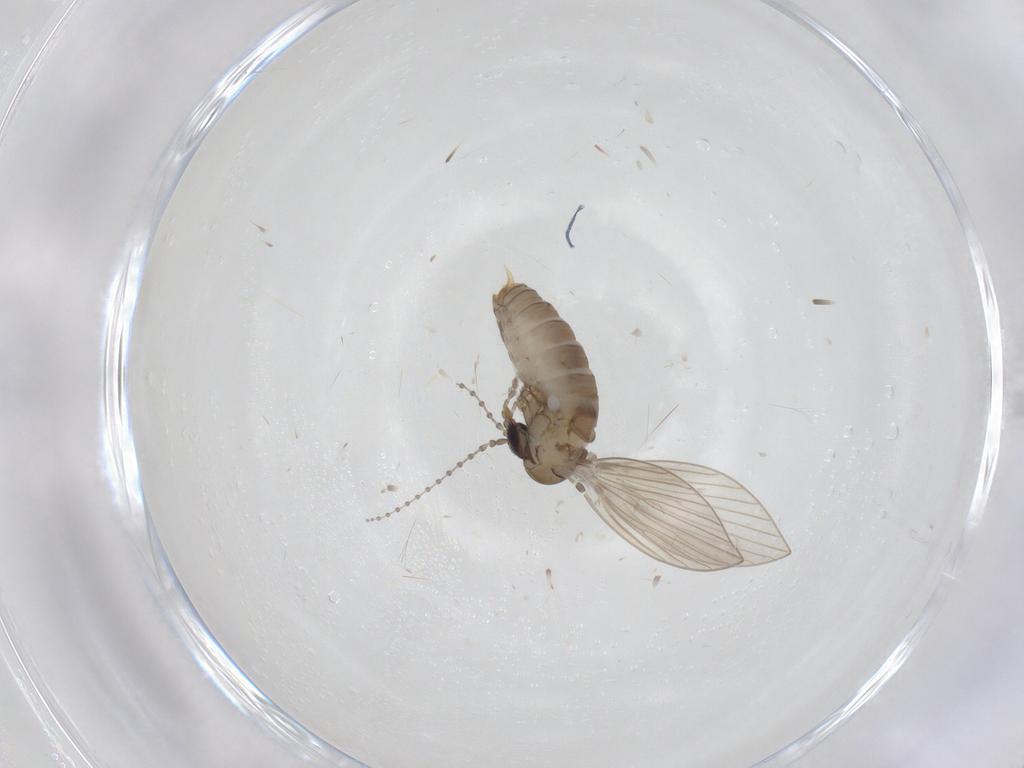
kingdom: Animalia
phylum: Arthropoda
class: Insecta
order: Diptera
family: Psychodidae
